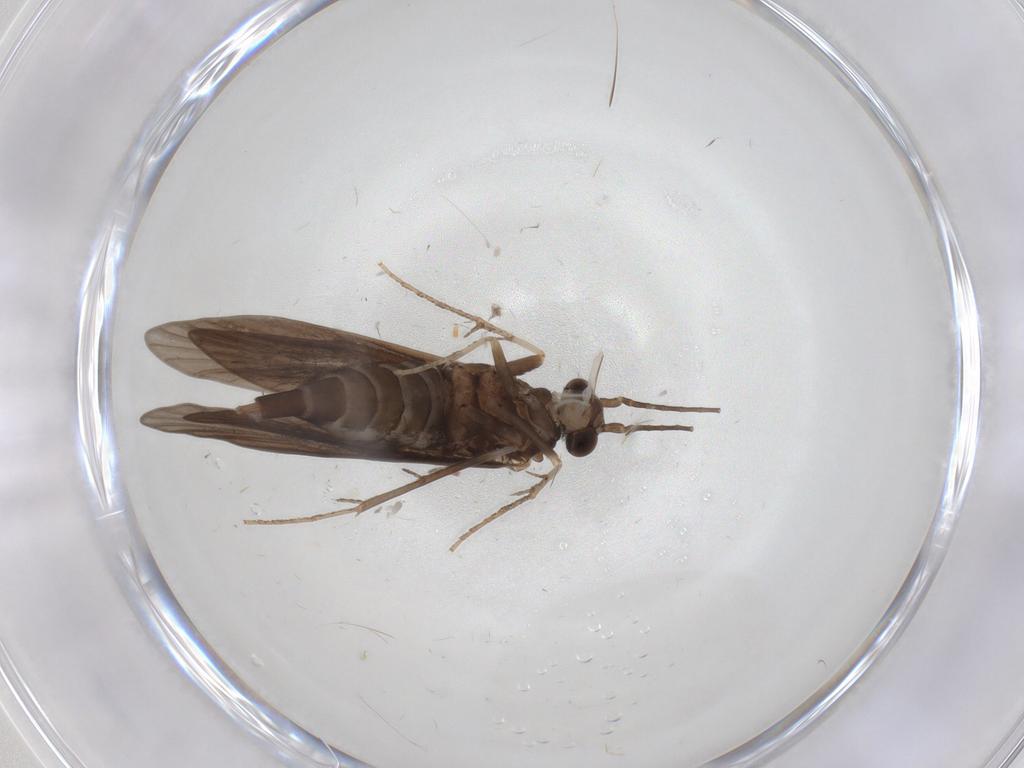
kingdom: Animalia
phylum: Arthropoda
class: Insecta
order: Trichoptera
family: Xiphocentronidae
